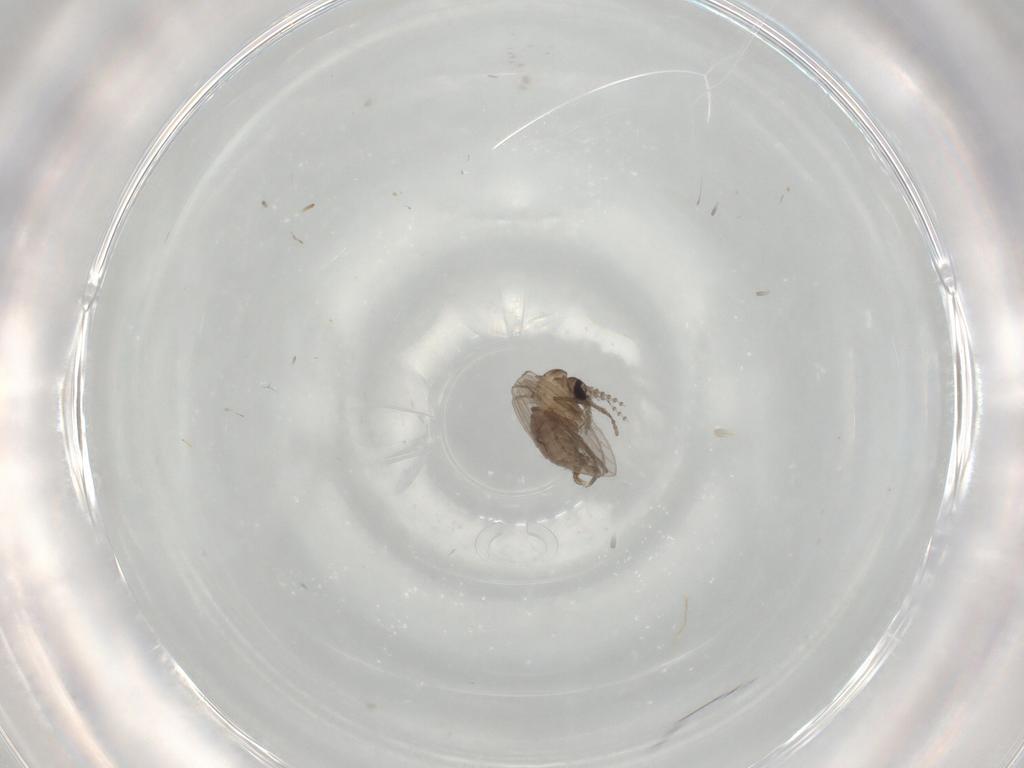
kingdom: Animalia
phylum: Arthropoda
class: Insecta
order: Diptera
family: Psychodidae
